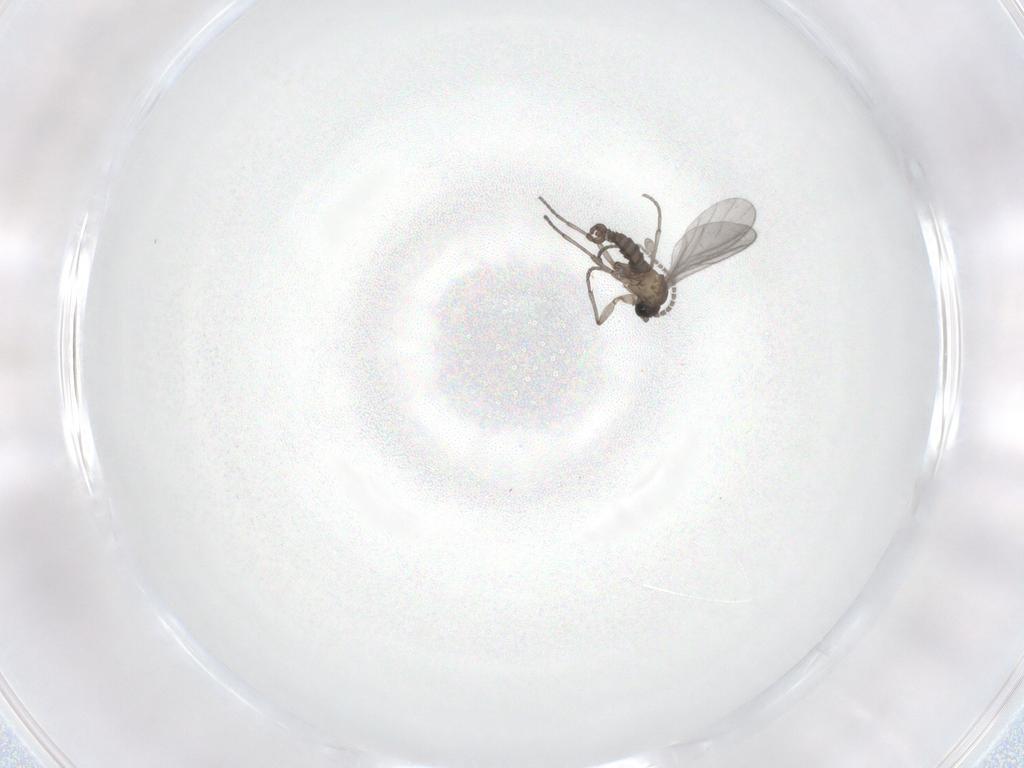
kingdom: Animalia
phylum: Arthropoda
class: Insecta
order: Diptera
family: Sciaridae
